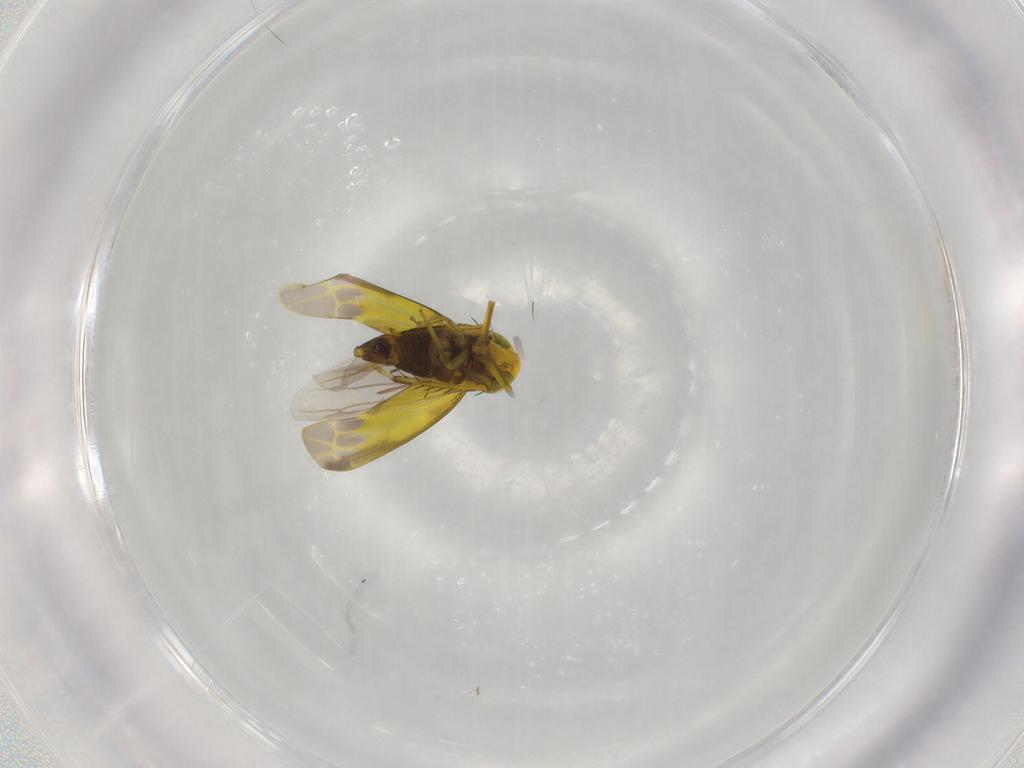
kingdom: Animalia
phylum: Arthropoda
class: Insecta
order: Hemiptera
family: Cicadellidae
